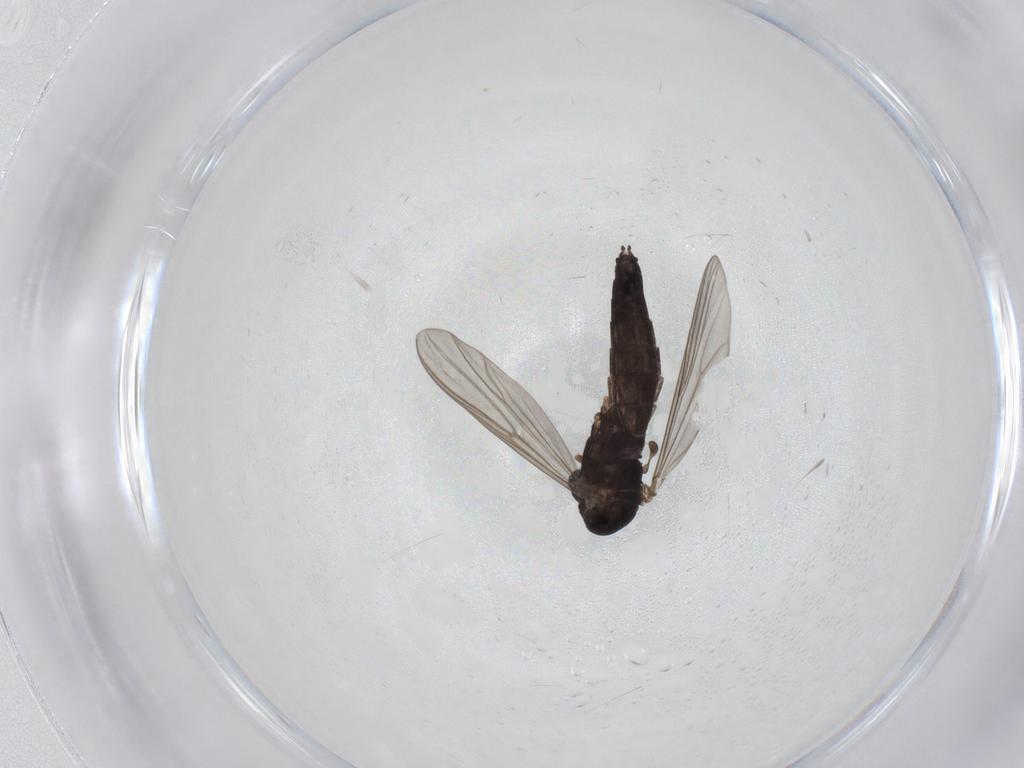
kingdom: Animalia
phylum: Arthropoda
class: Insecta
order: Diptera
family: Chironomidae
